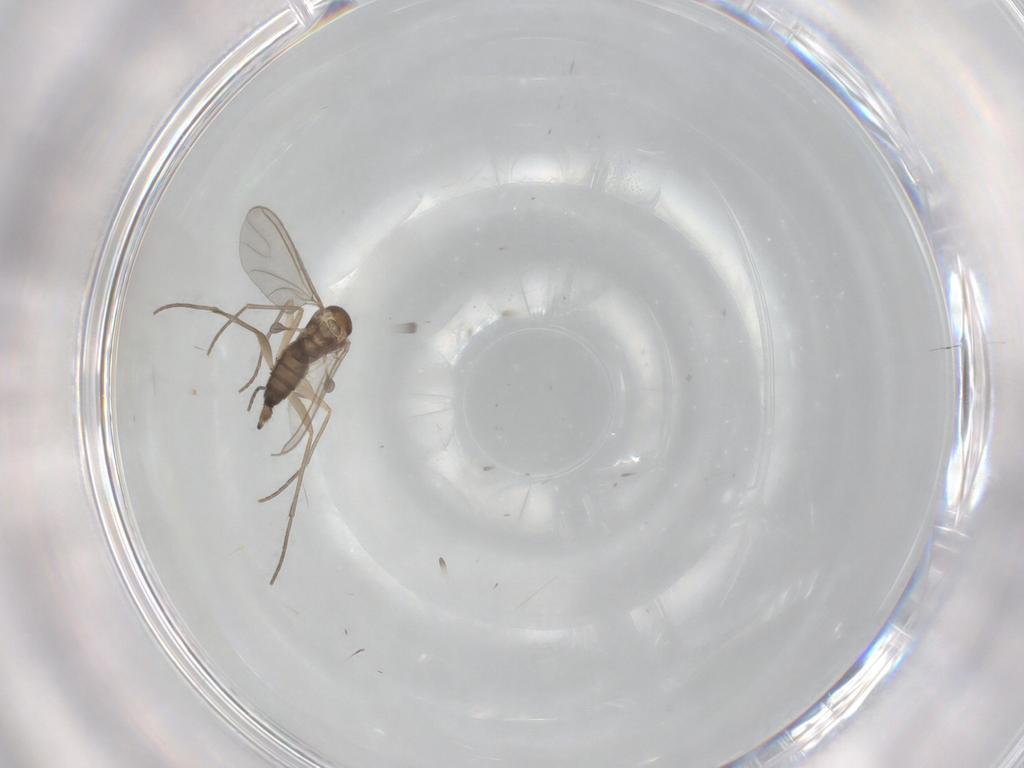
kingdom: Animalia
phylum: Arthropoda
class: Insecta
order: Diptera
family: Sciaridae
